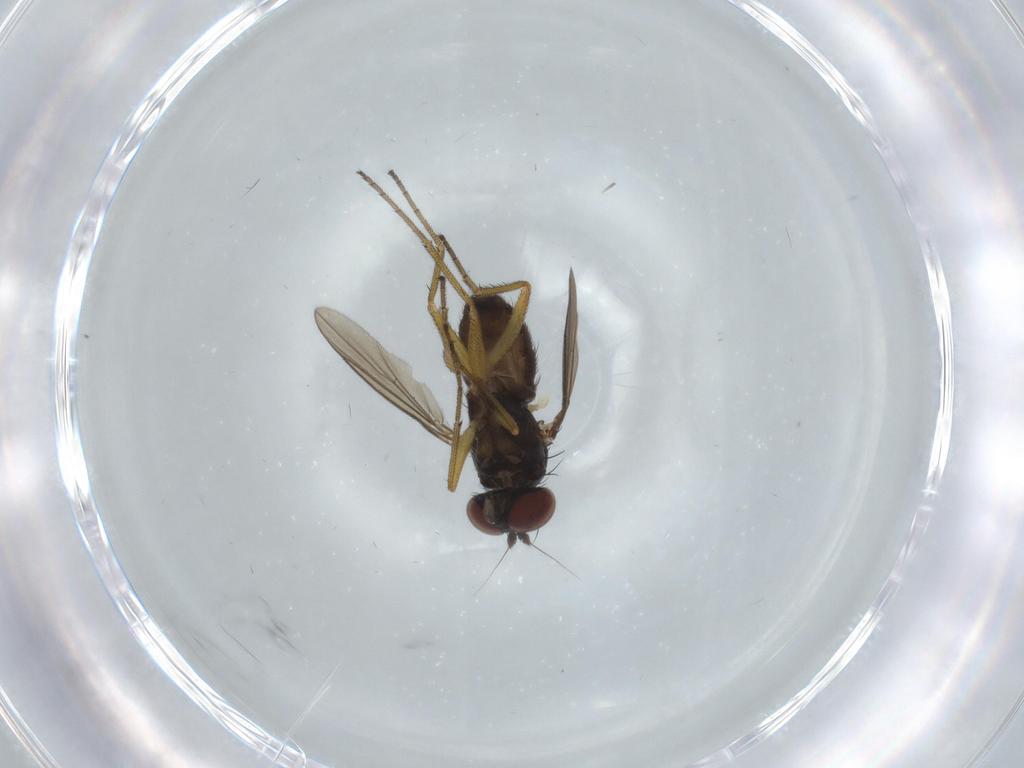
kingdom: Animalia
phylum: Arthropoda
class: Insecta
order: Diptera
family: Dolichopodidae
